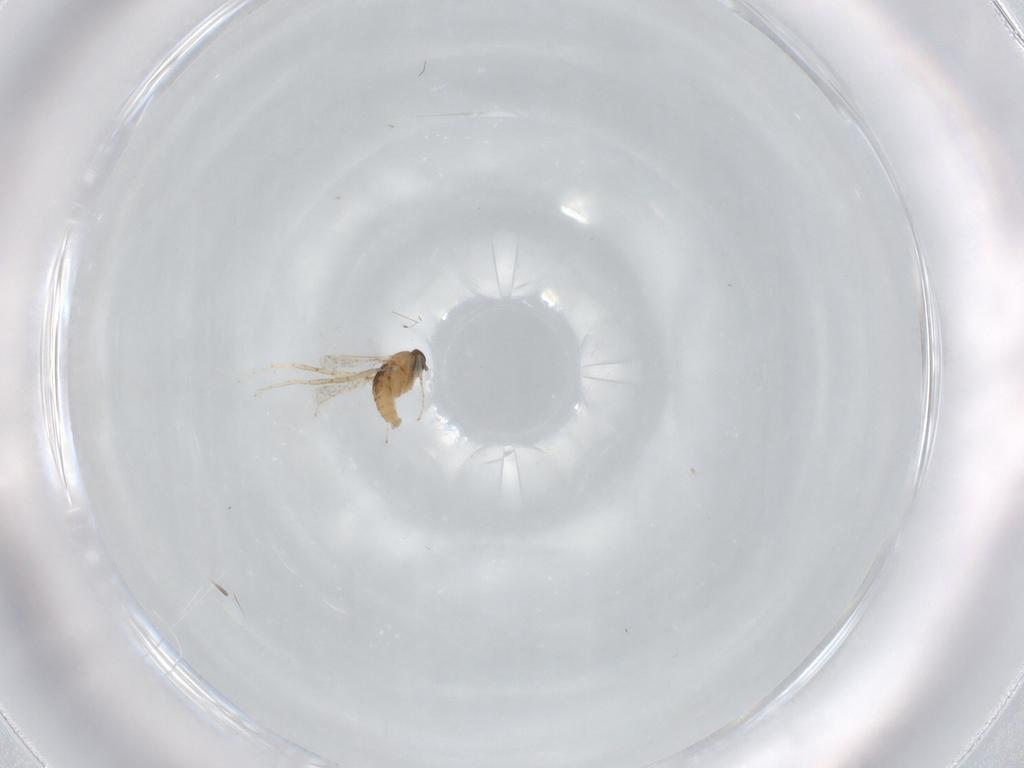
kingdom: Animalia
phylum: Arthropoda
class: Insecta
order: Diptera
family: Cecidomyiidae
